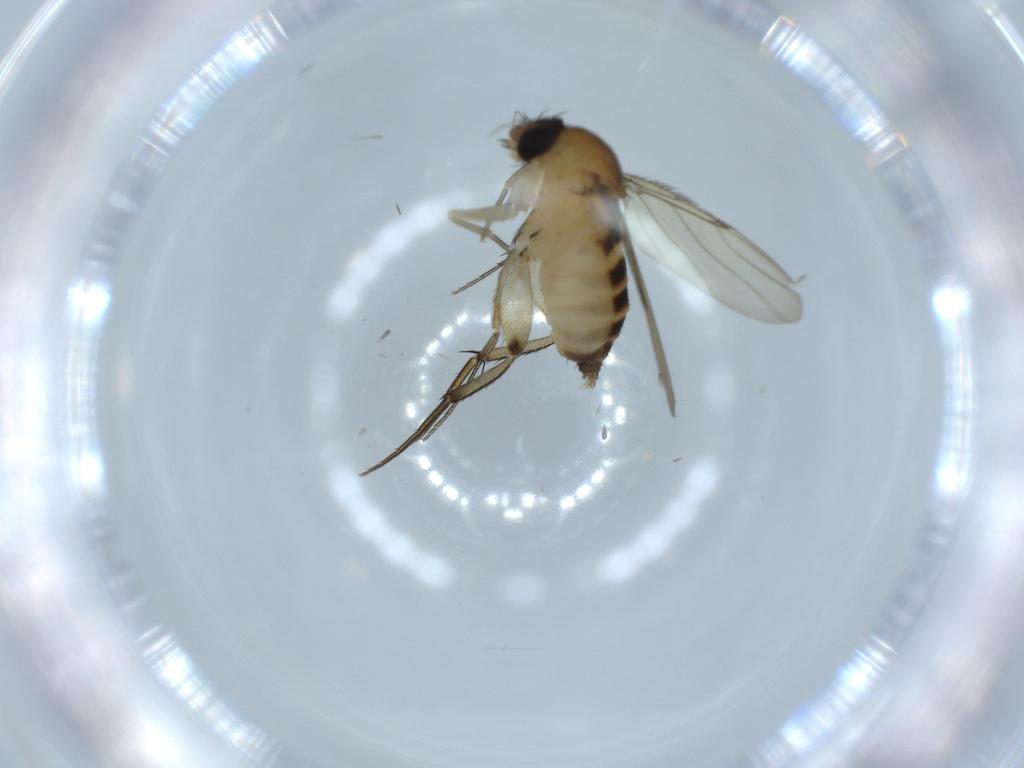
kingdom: Animalia
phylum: Arthropoda
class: Insecta
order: Diptera
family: Phoridae
